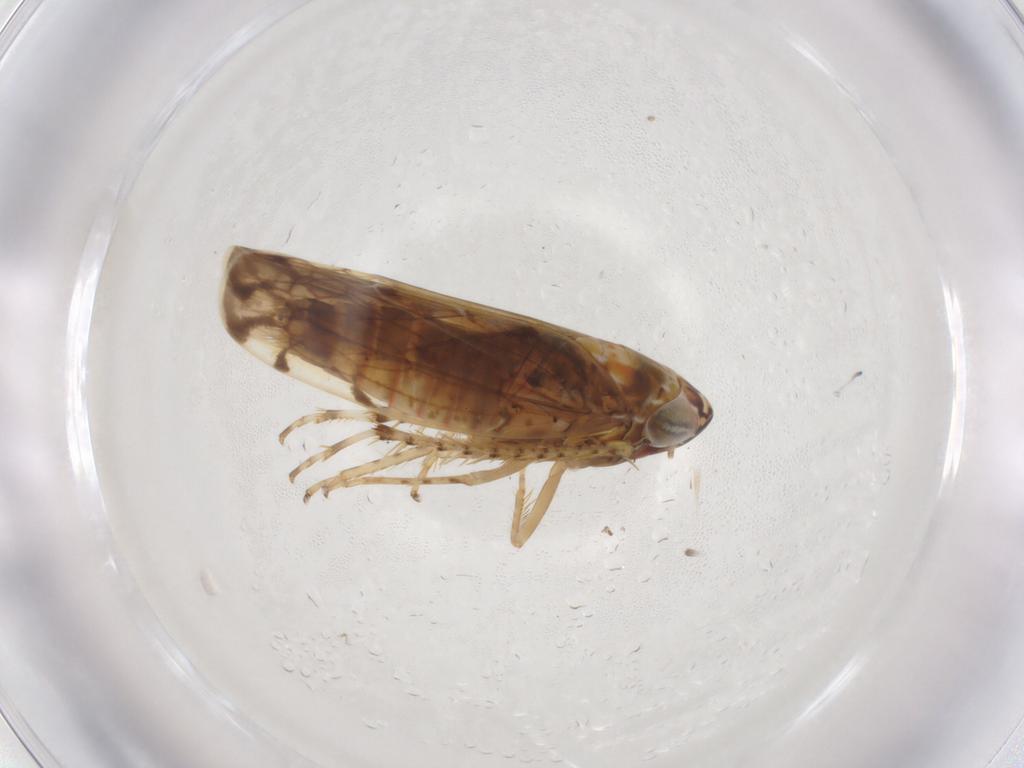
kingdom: Animalia
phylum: Arthropoda
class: Insecta
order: Hemiptera
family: Cicadellidae
